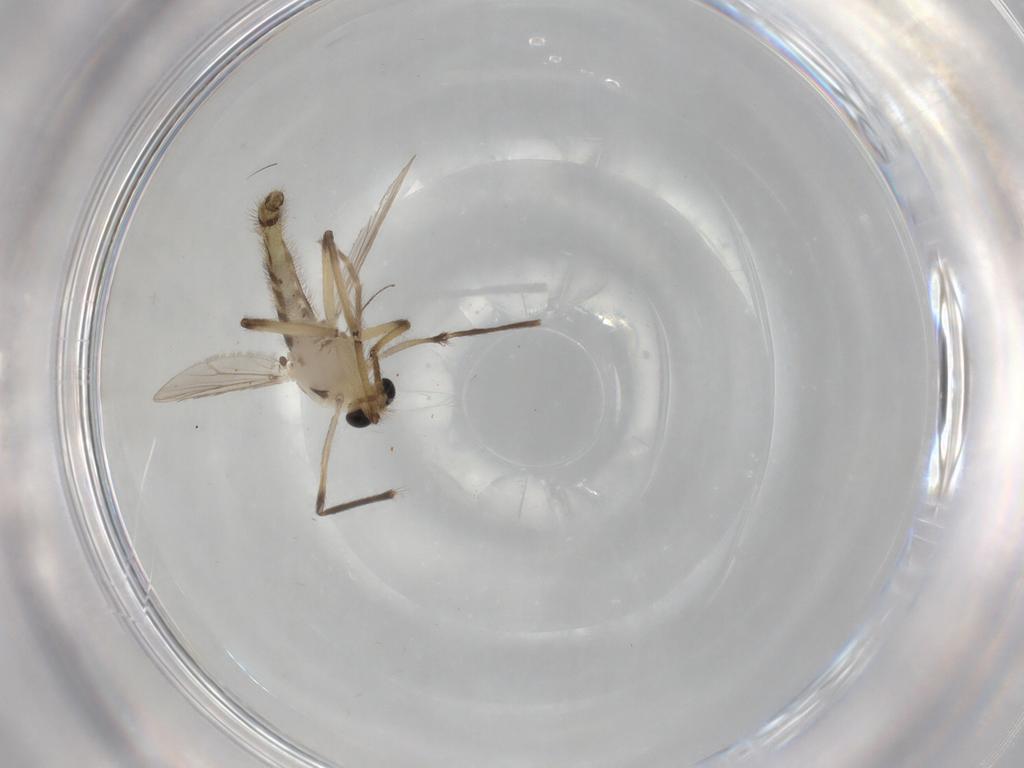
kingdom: Animalia
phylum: Arthropoda
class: Insecta
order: Diptera
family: Chironomidae
